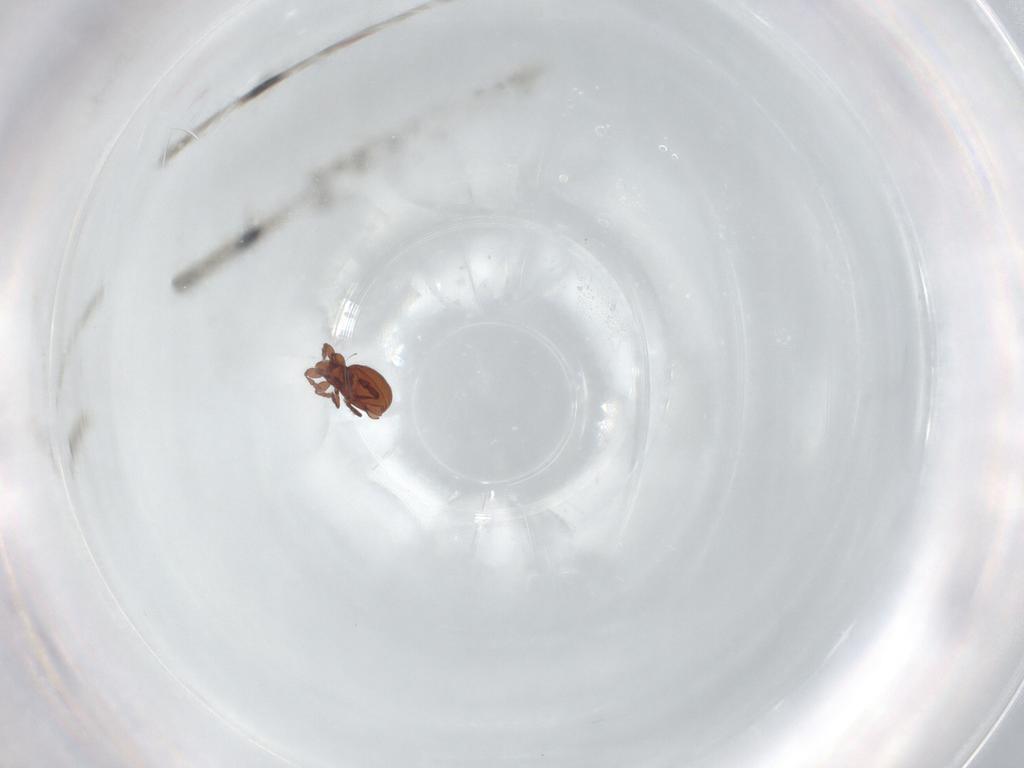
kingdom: Animalia
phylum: Arthropoda
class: Arachnida
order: Sarcoptiformes
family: Eremaeidae
